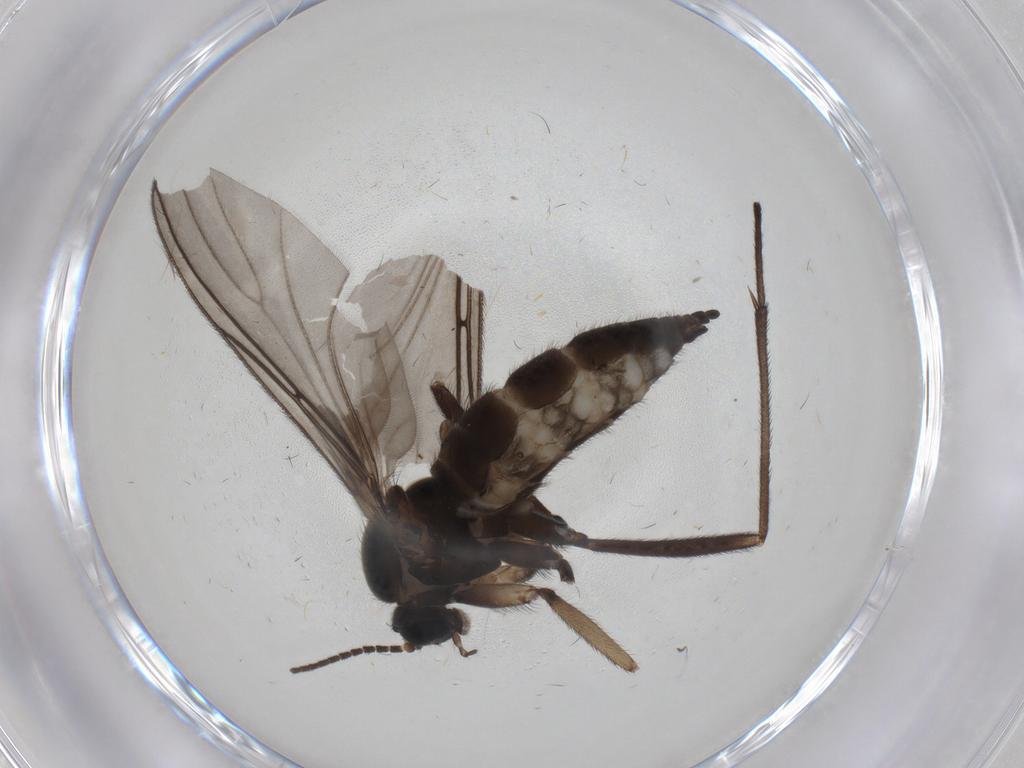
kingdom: Animalia
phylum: Arthropoda
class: Insecta
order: Diptera
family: Sciaridae
